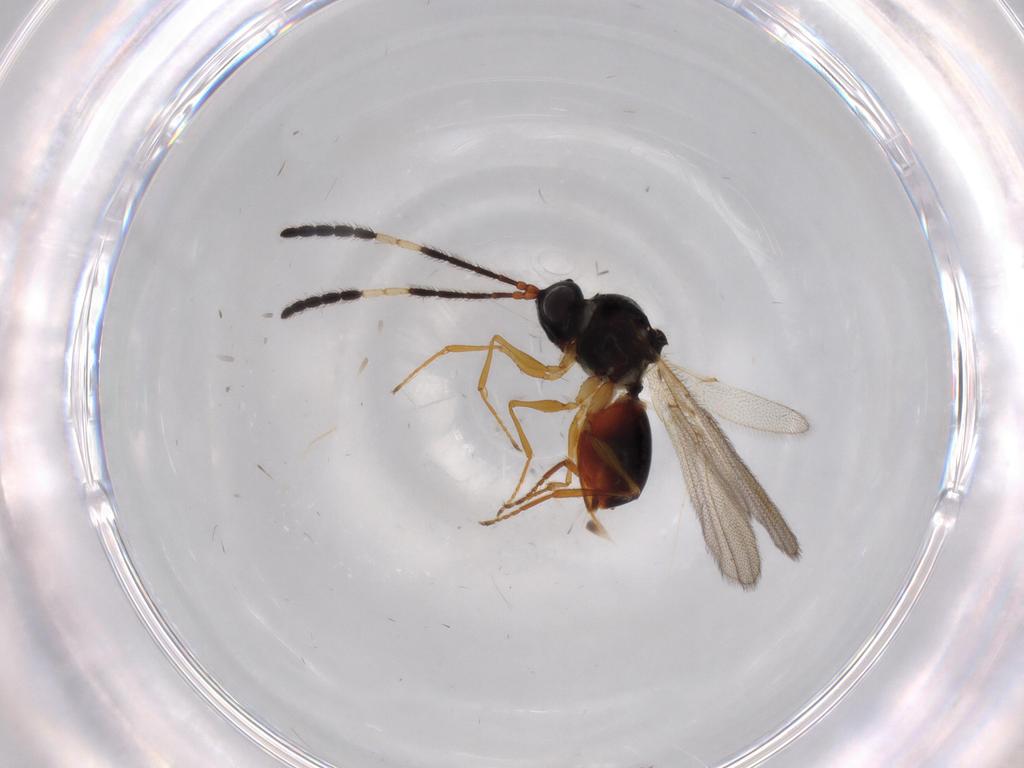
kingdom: Animalia
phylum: Arthropoda
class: Insecta
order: Hymenoptera
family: Figitidae
